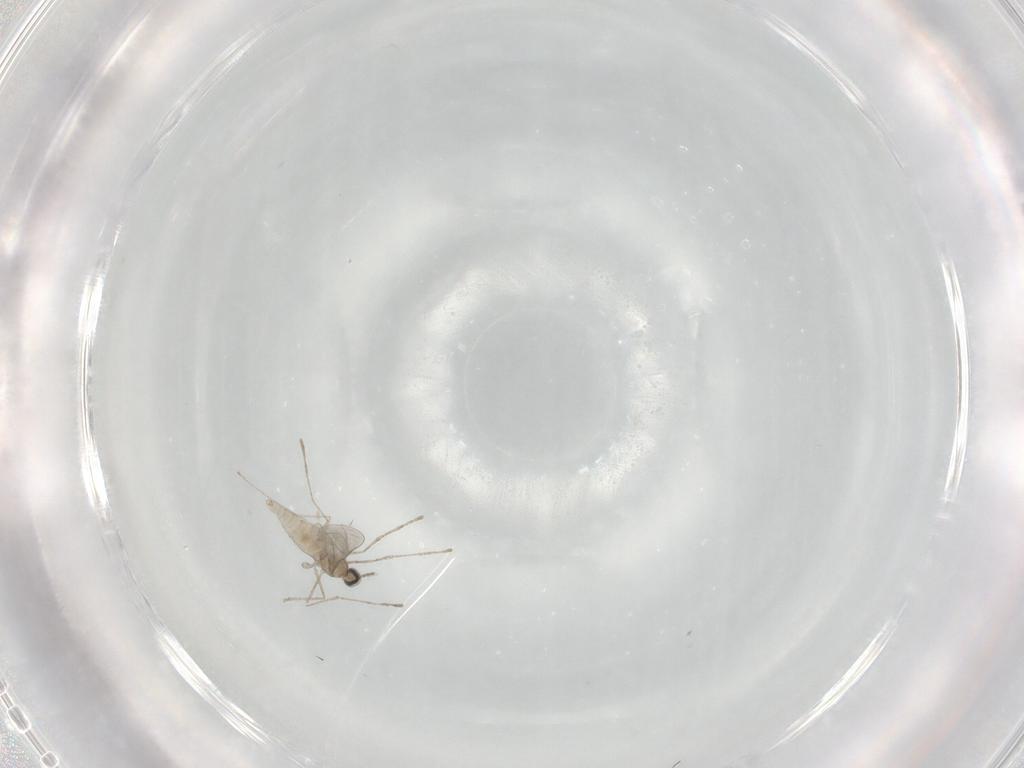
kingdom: Animalia
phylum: Arthropoda
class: Insecta
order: Diptera
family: Cecidomyiidae
